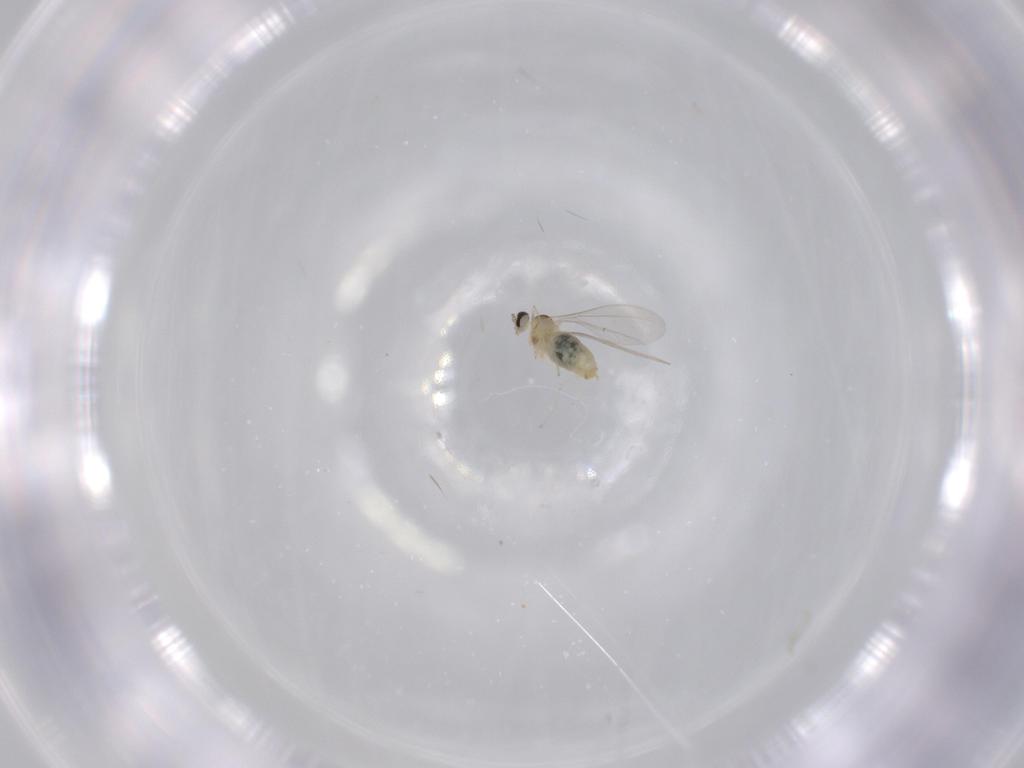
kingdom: Animalia
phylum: Arthropoda
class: Insecta
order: Diptera
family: Cecidomyiidae
